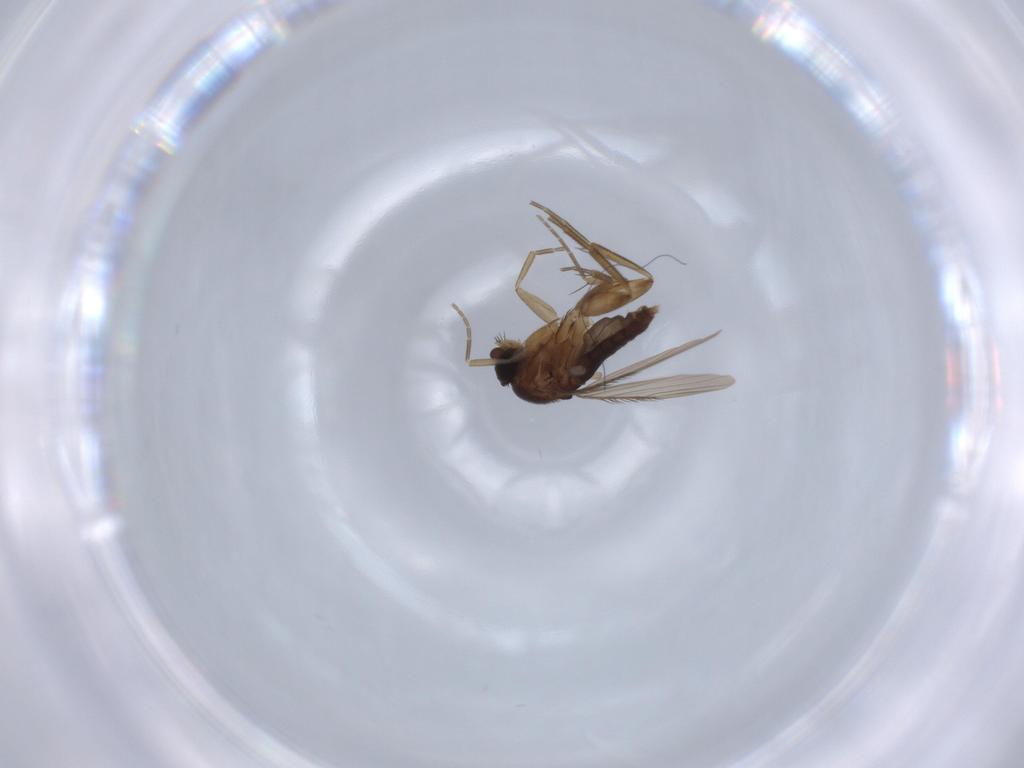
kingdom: Animalia
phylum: Arthropoda
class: Insecta
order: Diptera
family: Phoridae
